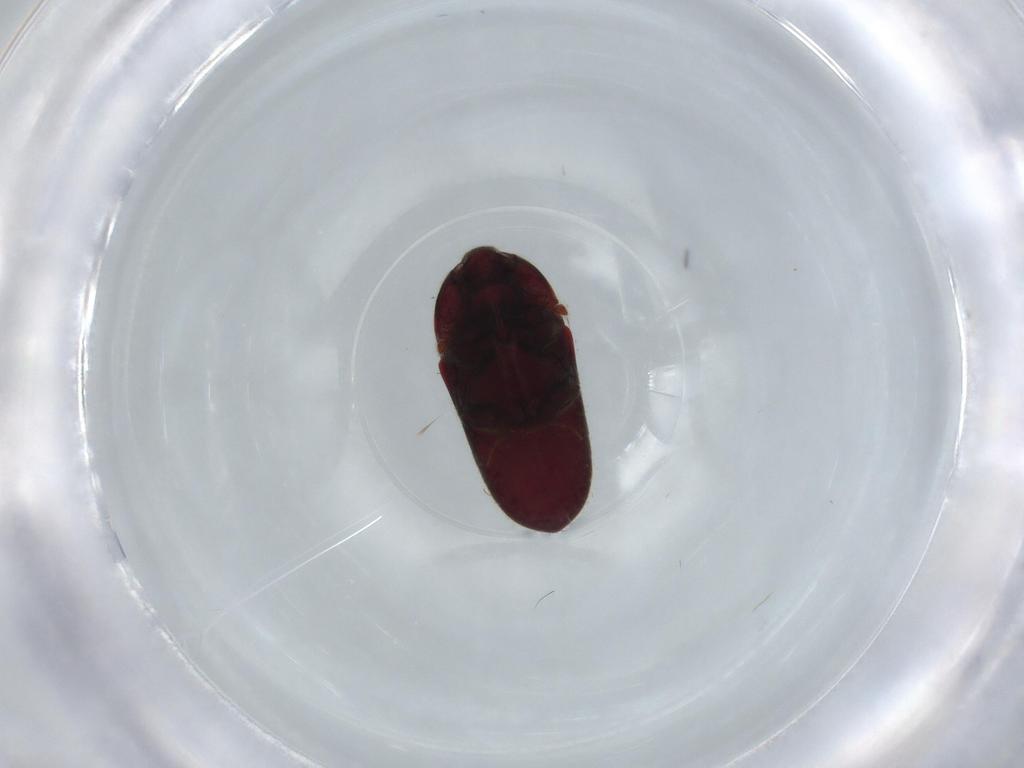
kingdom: Animalia
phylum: Arthropoda
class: Insecta
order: Coleoptera
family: Throscidae
